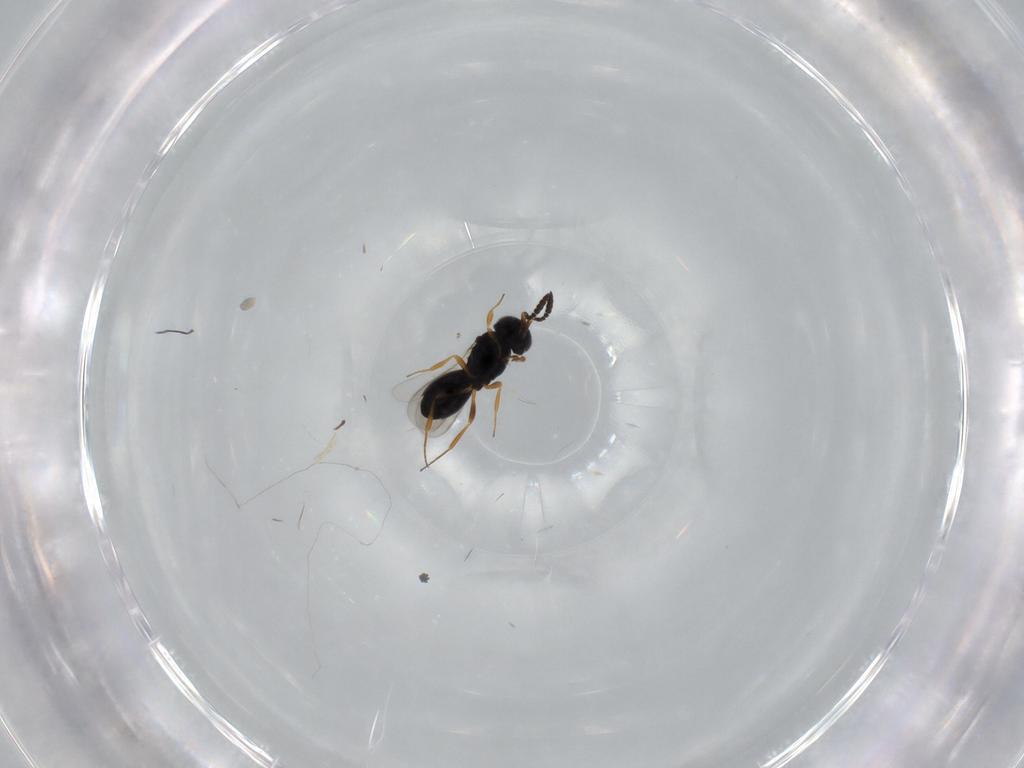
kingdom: Animalia
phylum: Arthropoda
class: Insecta
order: Hymenoptera
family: Scelionidae
